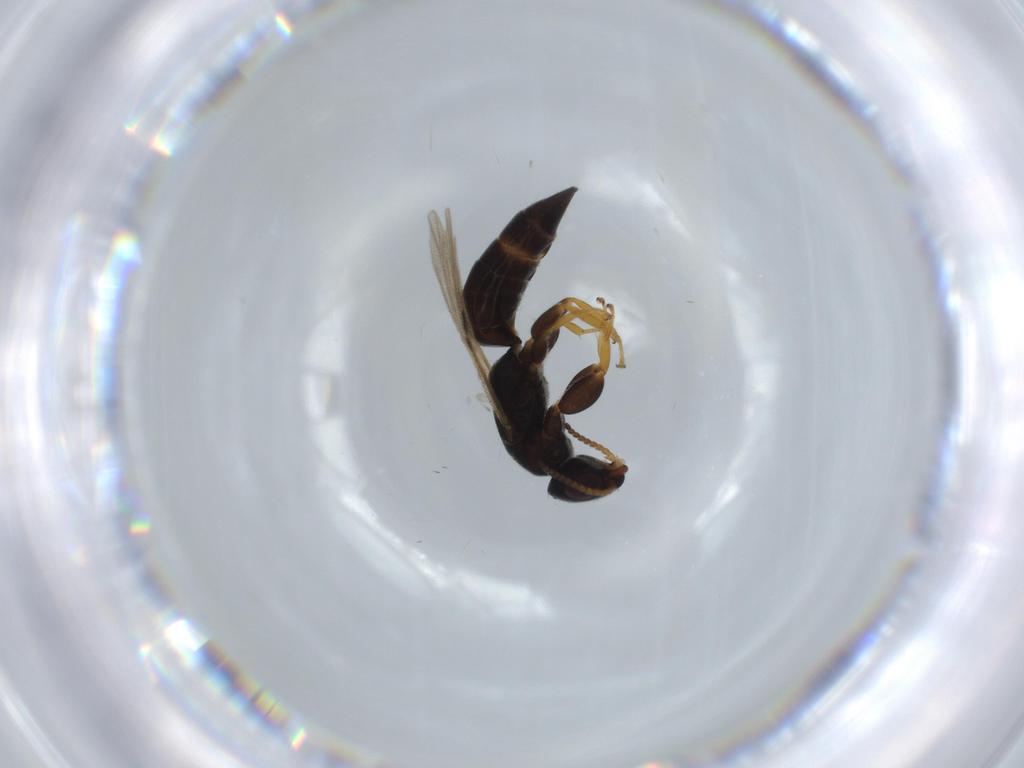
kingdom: Animalia
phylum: Arthropoda
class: Insecta
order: Hymenoptera
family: Bethylidae
